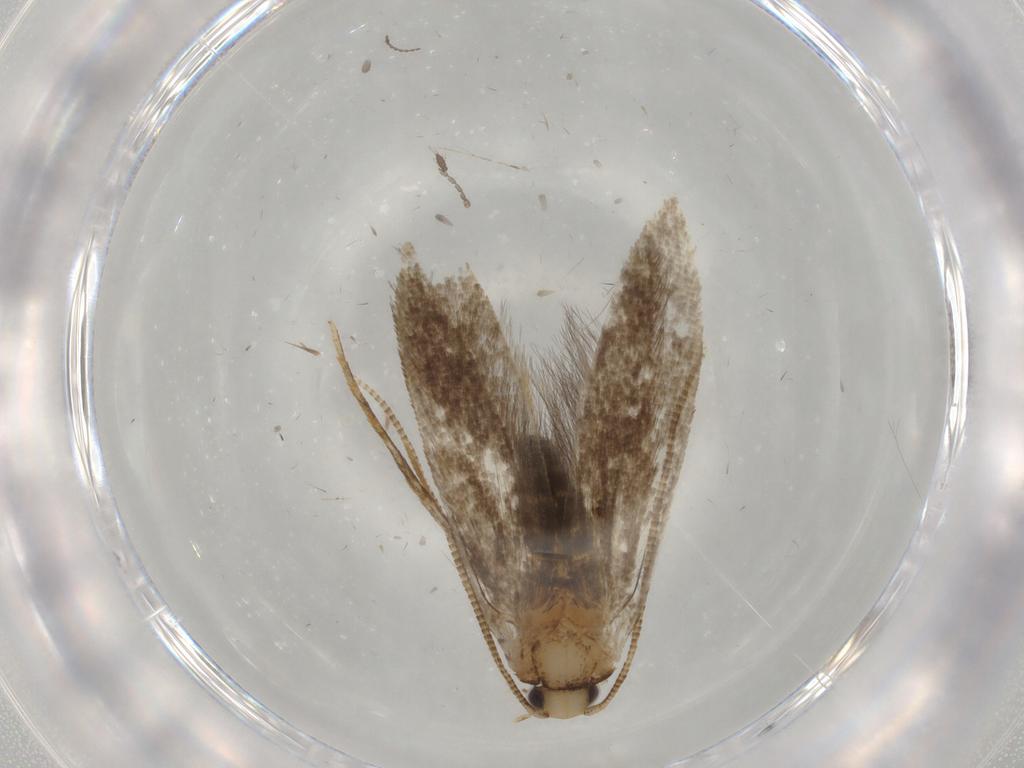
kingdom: Animalia
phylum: Arthropoda
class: Insecta
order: Lepidoptera
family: Tineidae
